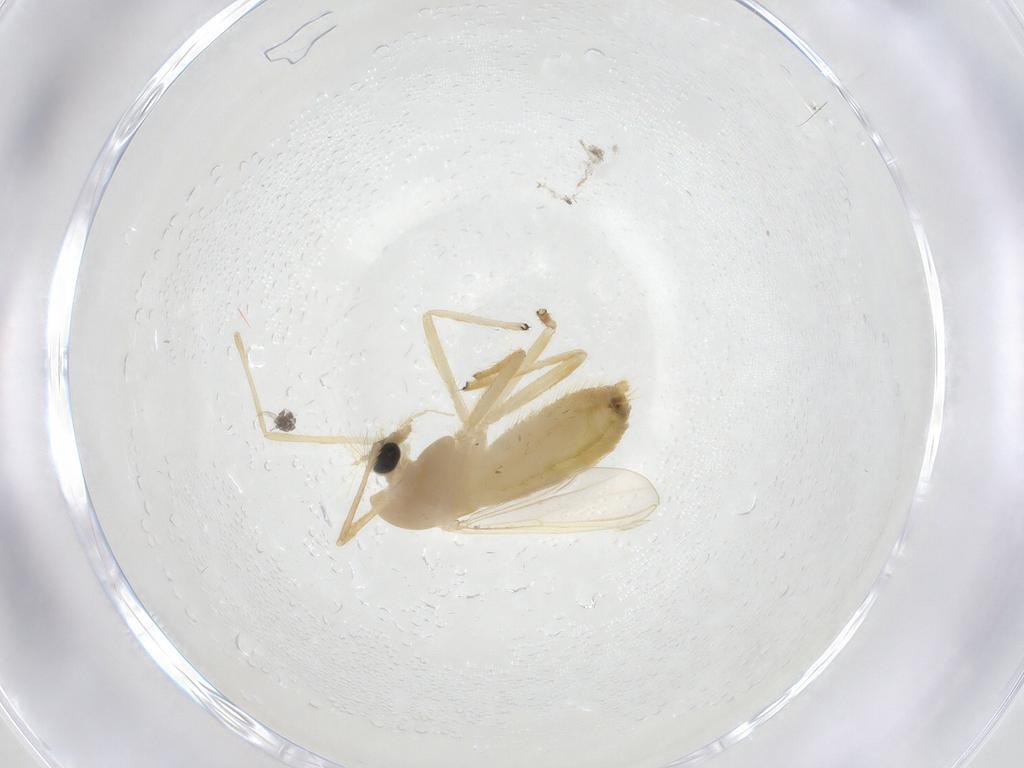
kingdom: Animalia
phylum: Arthropoda
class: Insecta
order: Diptera
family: Chironomidae
